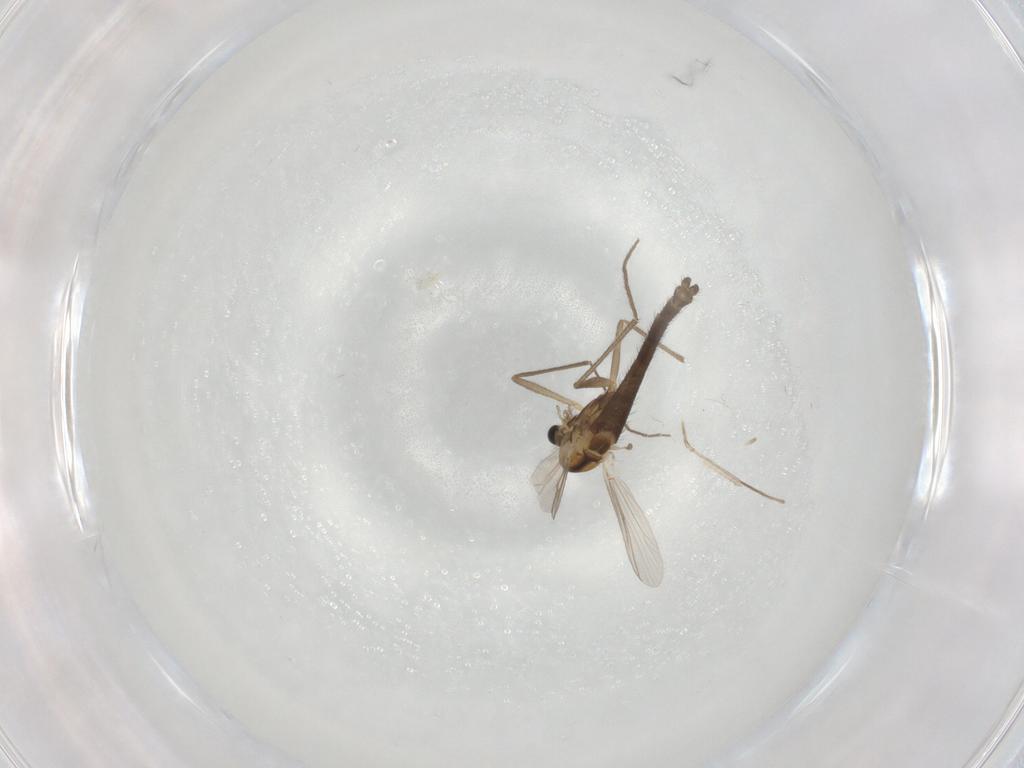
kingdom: Animalia
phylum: Arthropoda
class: Insecta
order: Diptera
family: Chironomidae
